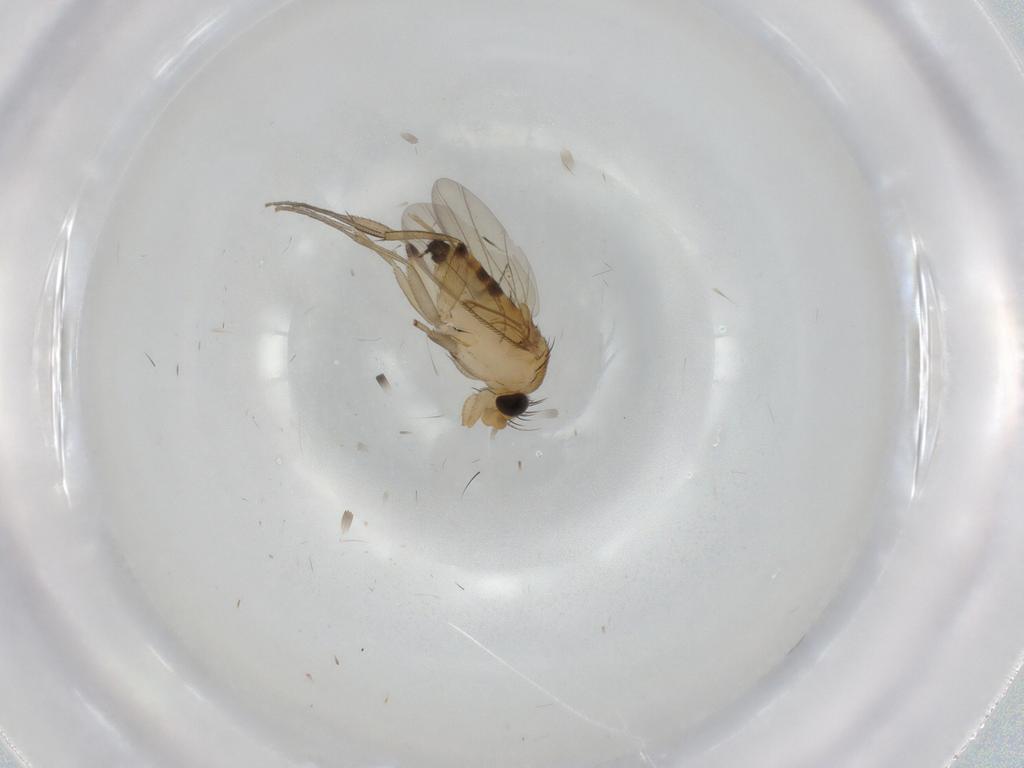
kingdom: Animalia
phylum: Arthropoda
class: Insecta
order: Diptera
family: Phoridae
